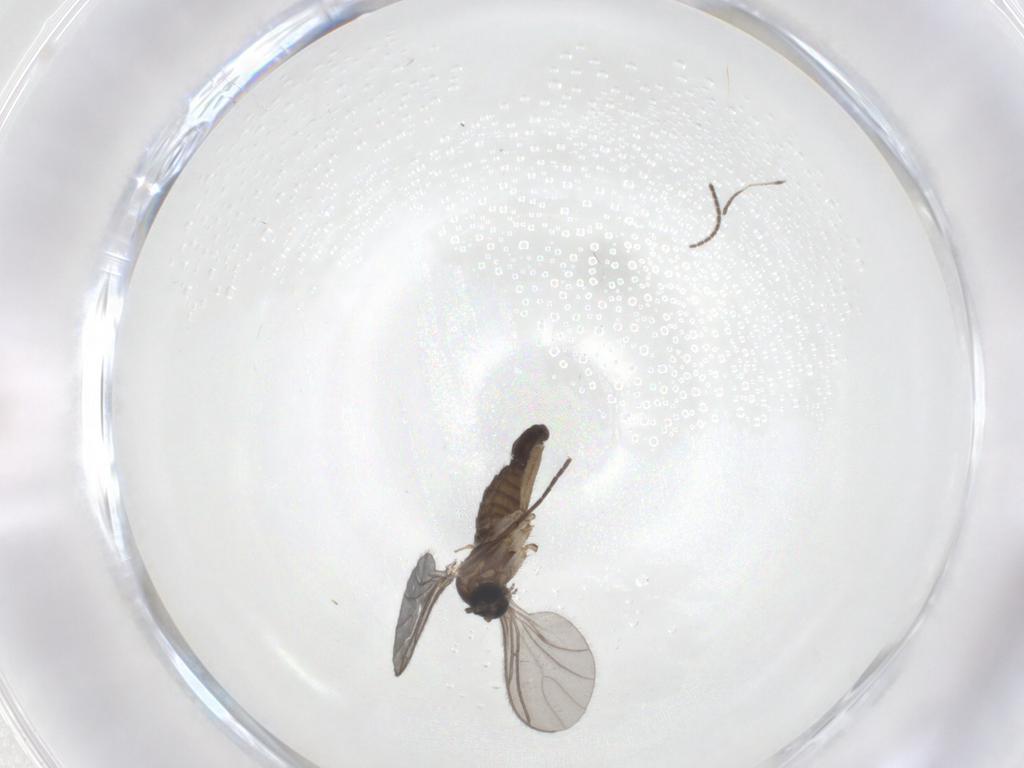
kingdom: Animalia
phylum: Arthropoda
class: Insecta
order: Diptera
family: Sciaridae
